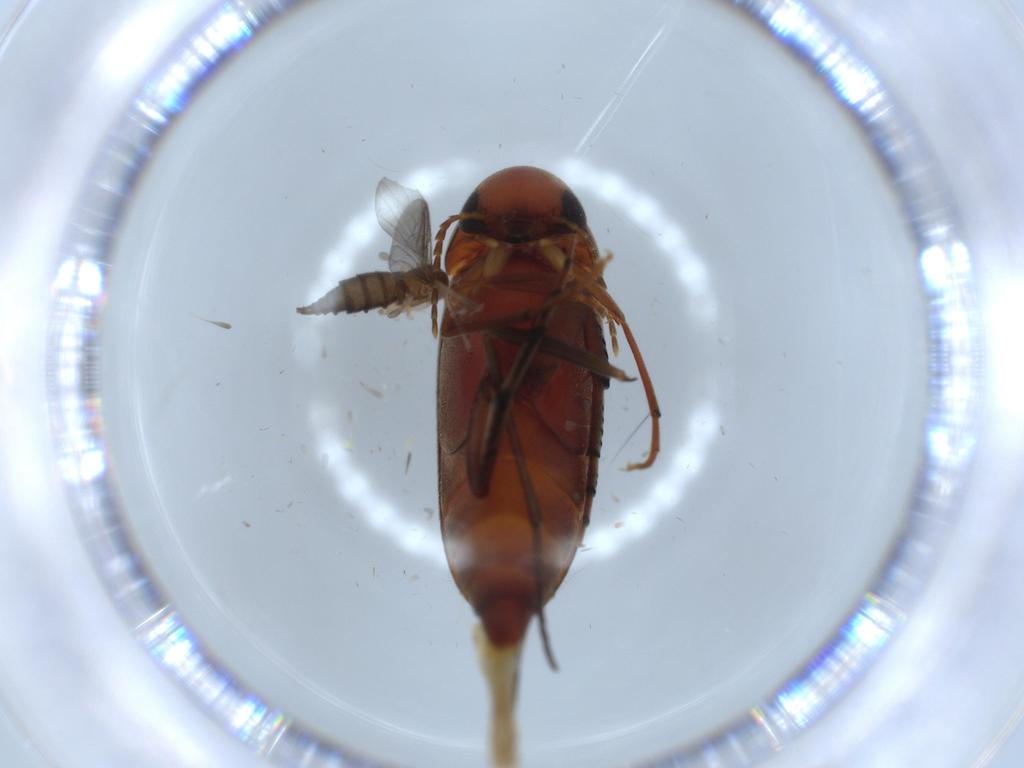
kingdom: Animalia
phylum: Arthropoda
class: Insecta
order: Diptera
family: Sciaridae
